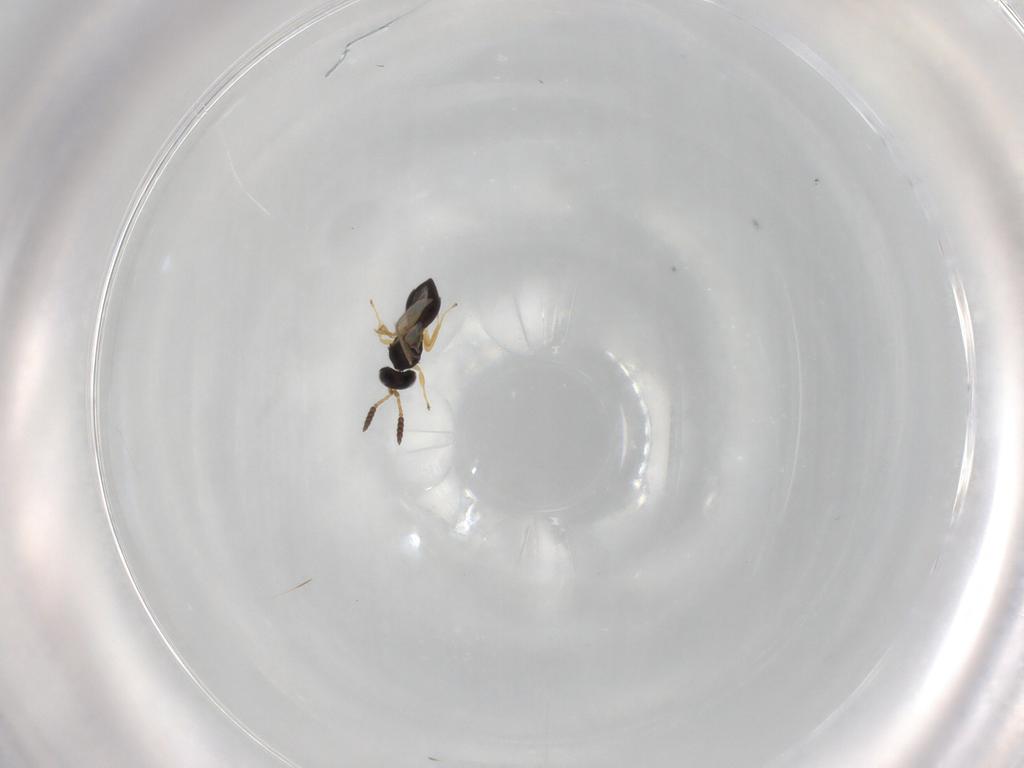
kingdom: Animalia
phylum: Arthropoda
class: Insecta
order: Hymenoptera
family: Scelionidae
